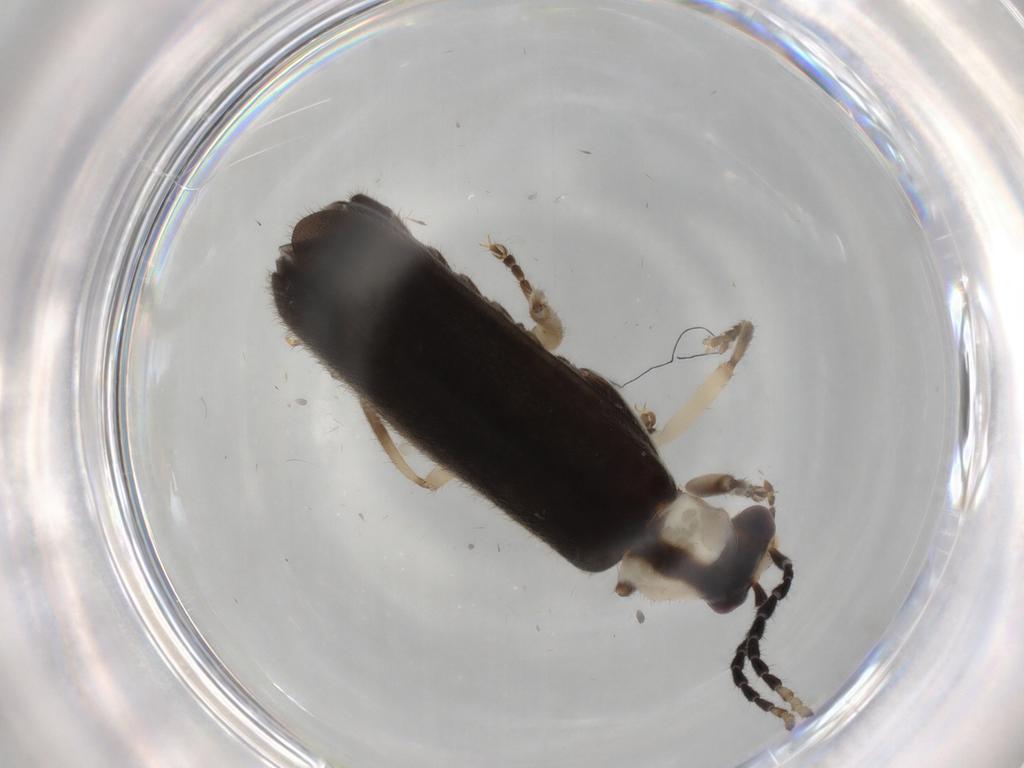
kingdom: Animalia
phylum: Arthropoda
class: Insecta
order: Coleoptera
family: Cantharidae
